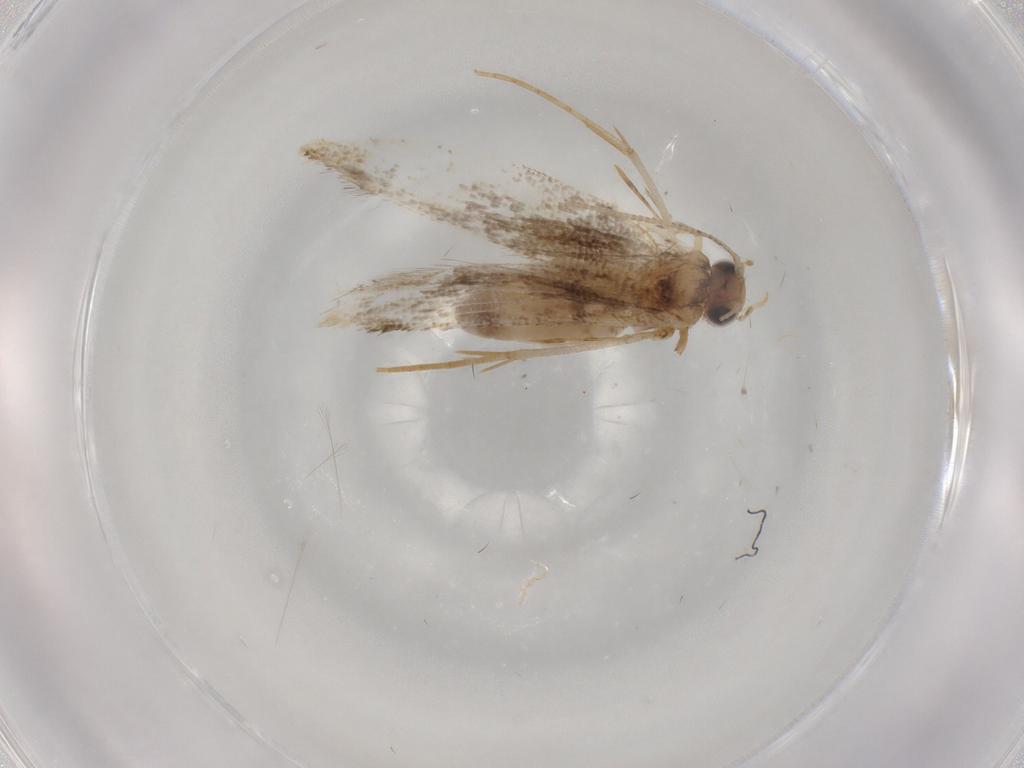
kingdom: Animalia
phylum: Arthropoda
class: Insecta
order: Lepidoptera
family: Tineidae
